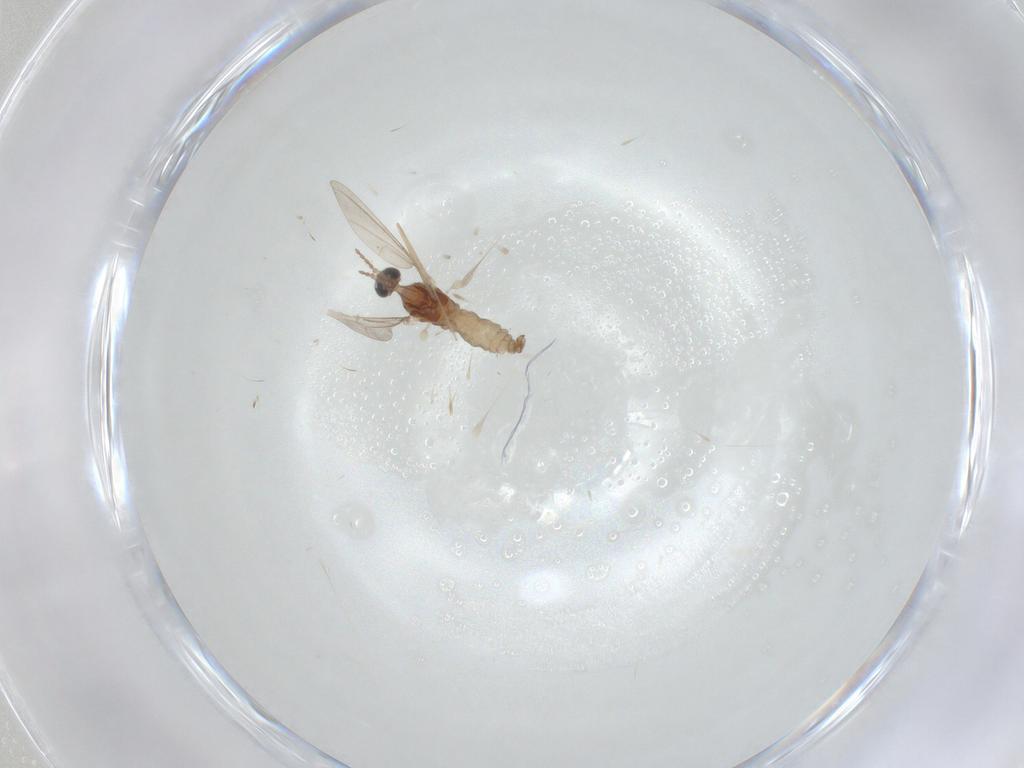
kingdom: Animalia
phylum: Arthropoda
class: Insecta
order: Diptera
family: Cecidomyiidae
